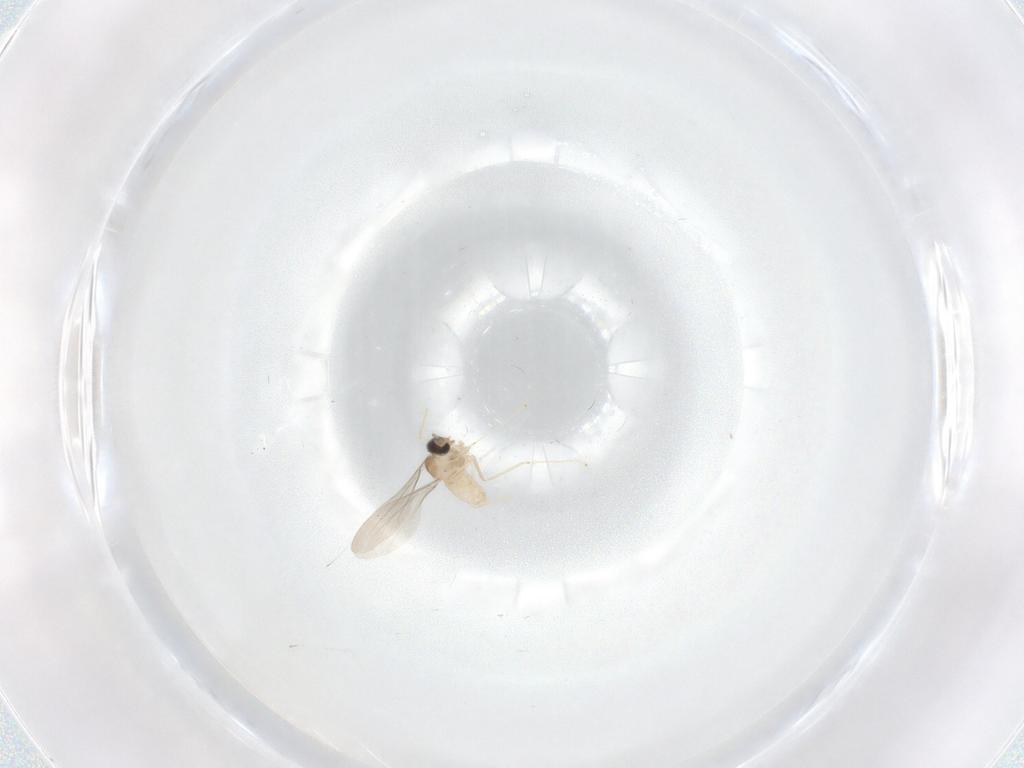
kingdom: Animalia
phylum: Arthropoda
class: Insecta
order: Diptera
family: Cecidomyiidae
